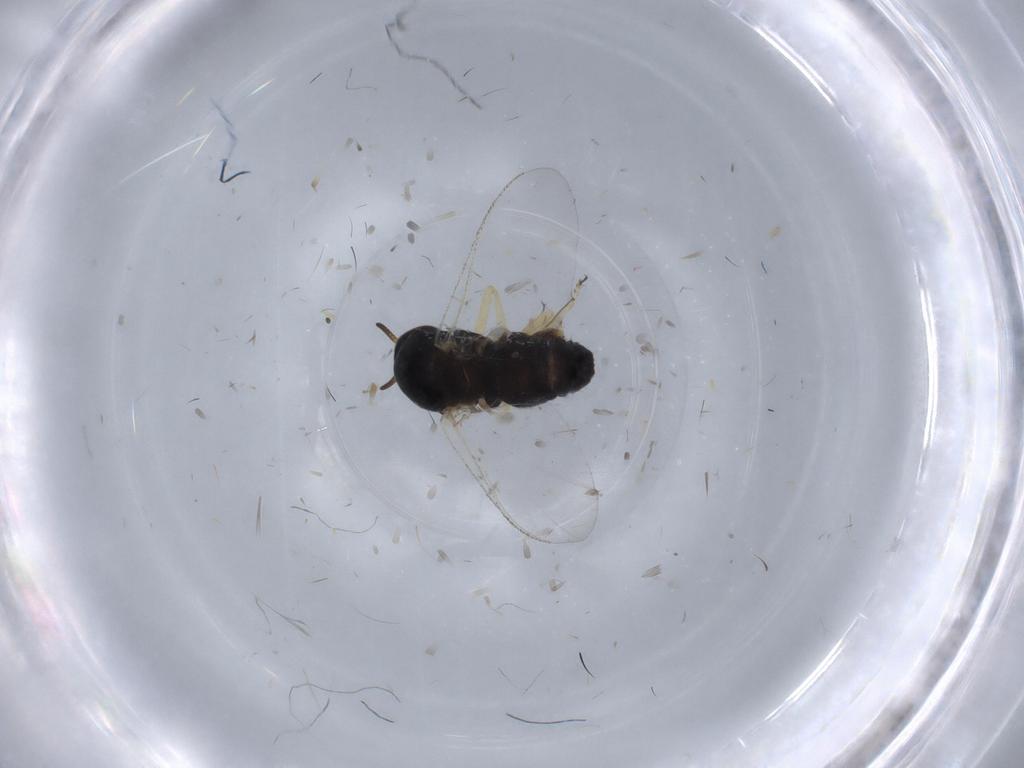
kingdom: Animalia
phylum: Arthropoda
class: Insecta
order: Diptera
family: Sciaridae
